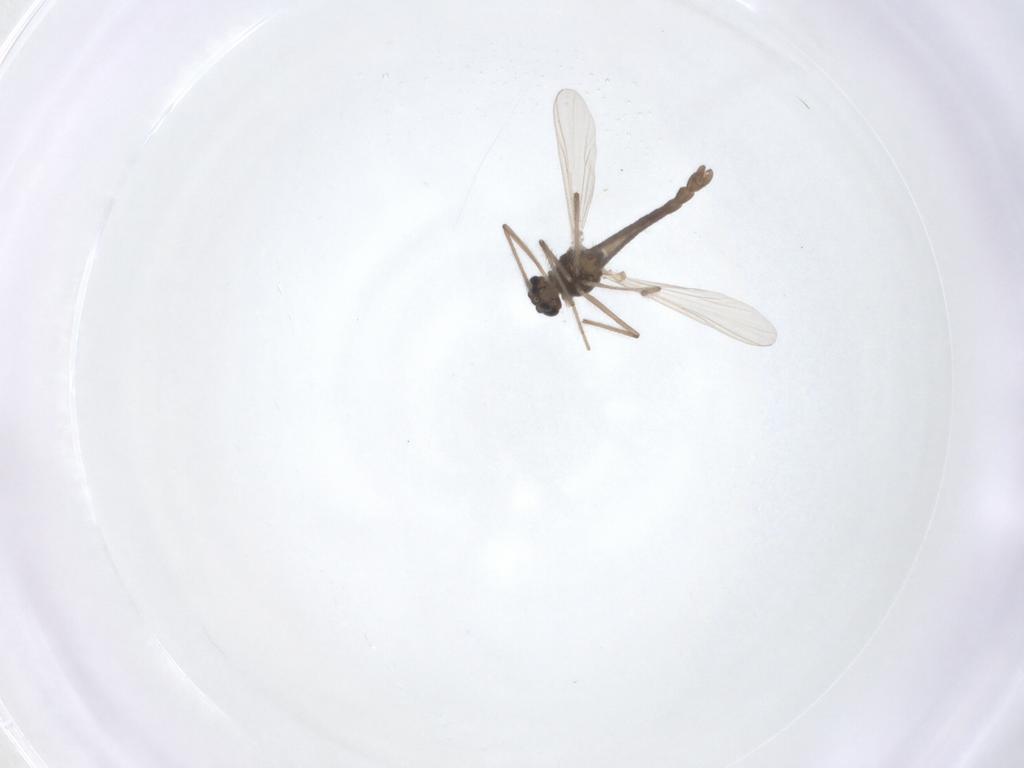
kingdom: Animalia
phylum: Arthropoda
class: Insecta
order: Diptera
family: Chironomidae
